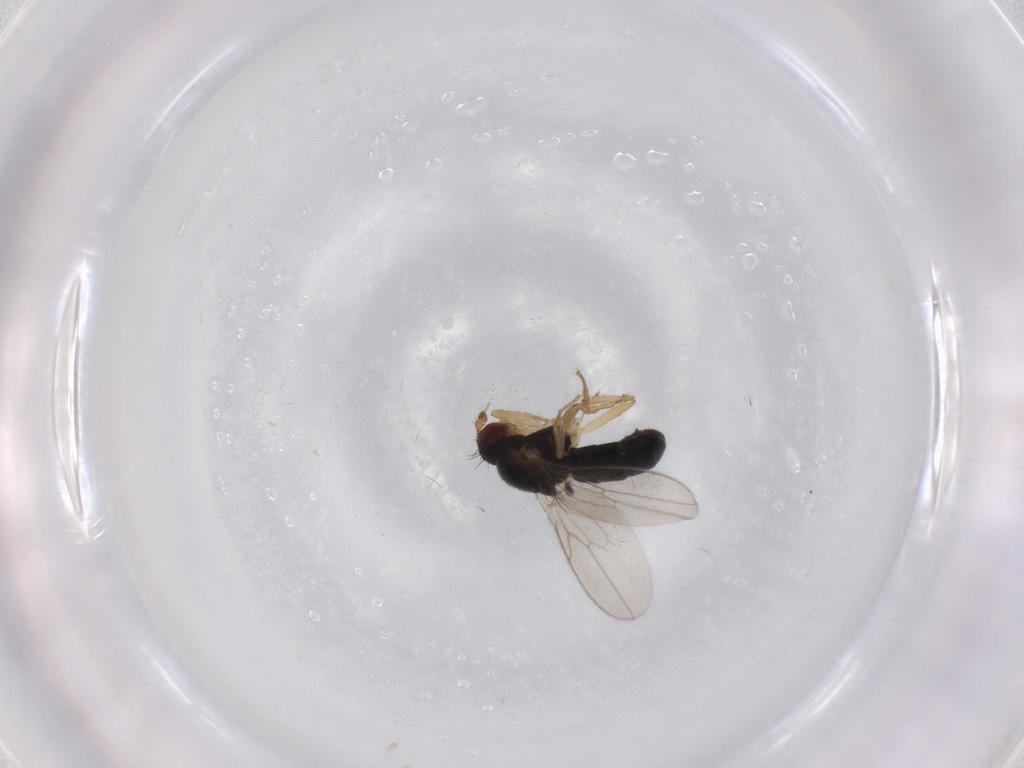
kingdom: Animalia
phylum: Arthropoda
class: Insecta
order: Diptera
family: Sphaeroceridae
